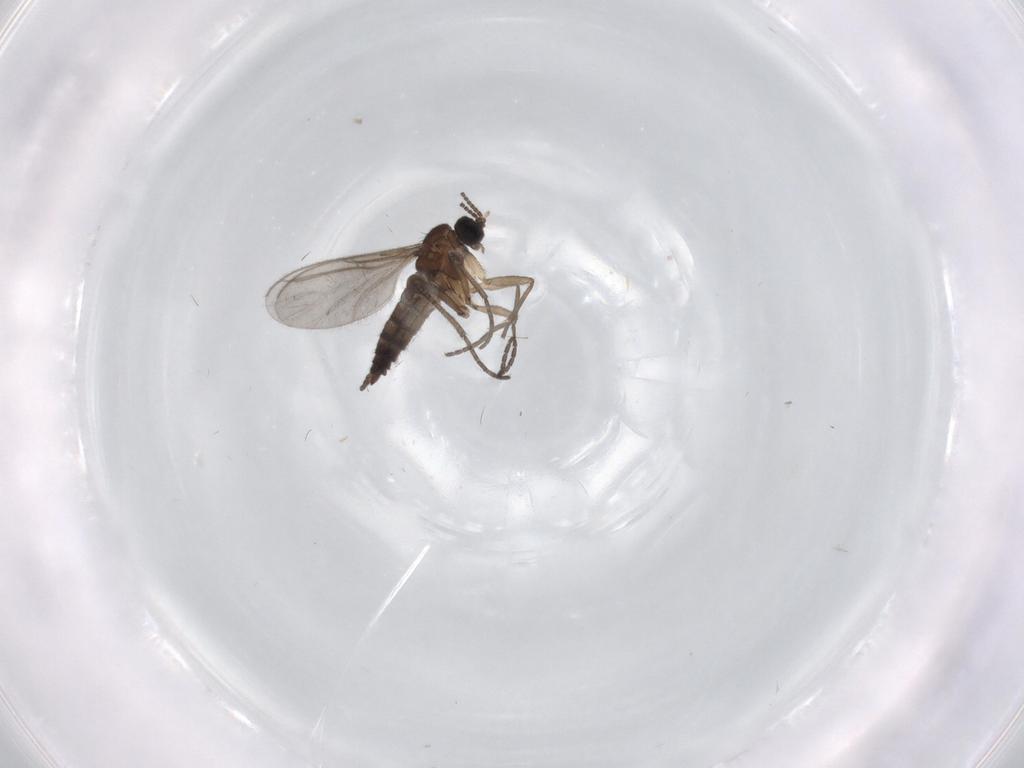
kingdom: Animalia
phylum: Arthropoda
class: Insecta
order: Diptera
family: Sciaridae
